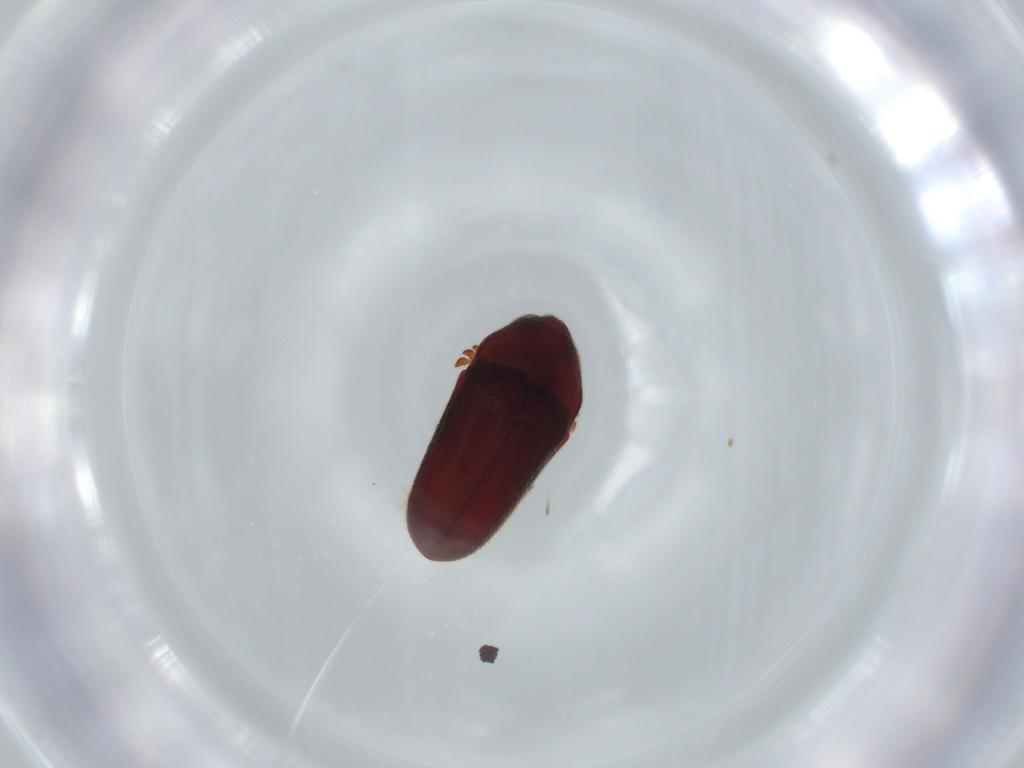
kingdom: Animalia
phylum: Arthropoda
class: Insecta
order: Coleoptera
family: Throscidae
